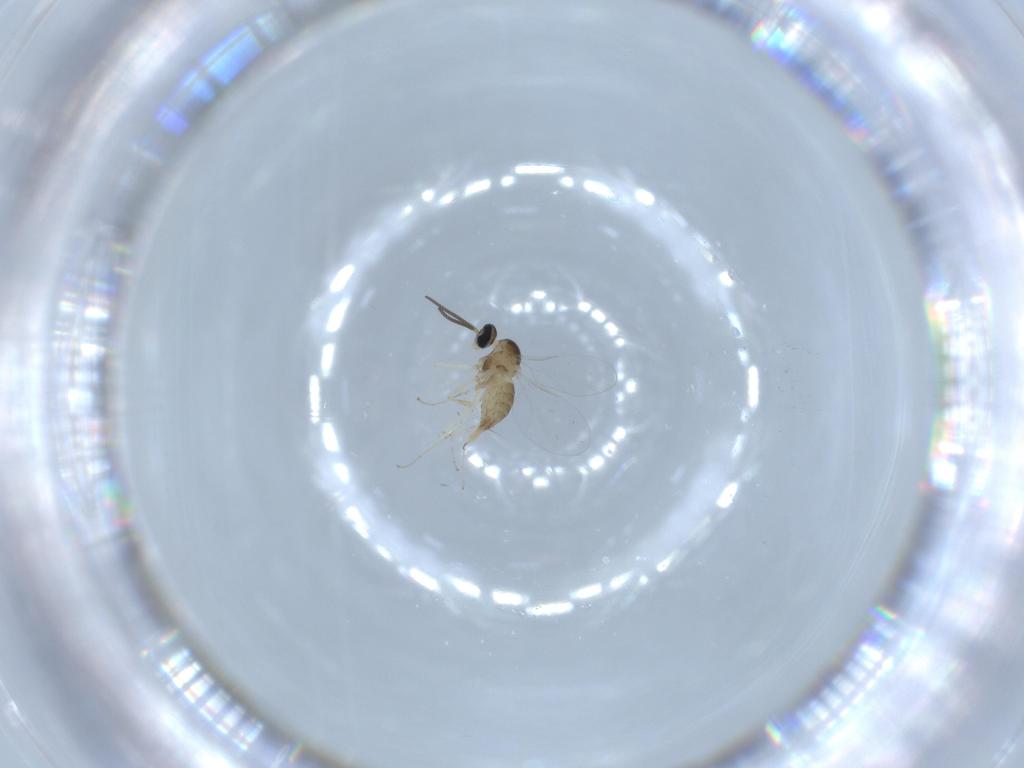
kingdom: Animalia
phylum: Arthropoda
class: Insecta
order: Diptera
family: Cecidomyiidae
